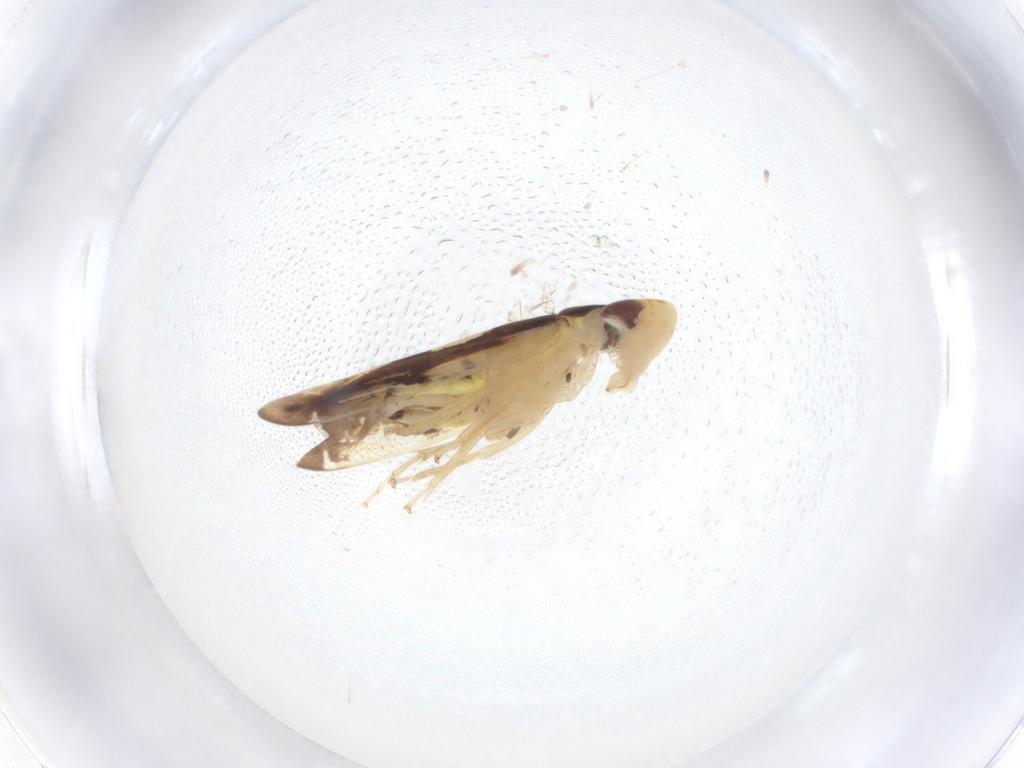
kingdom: Animalia
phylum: Arthropoda
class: Insecta
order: Hemiptera
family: Cicadellidae
